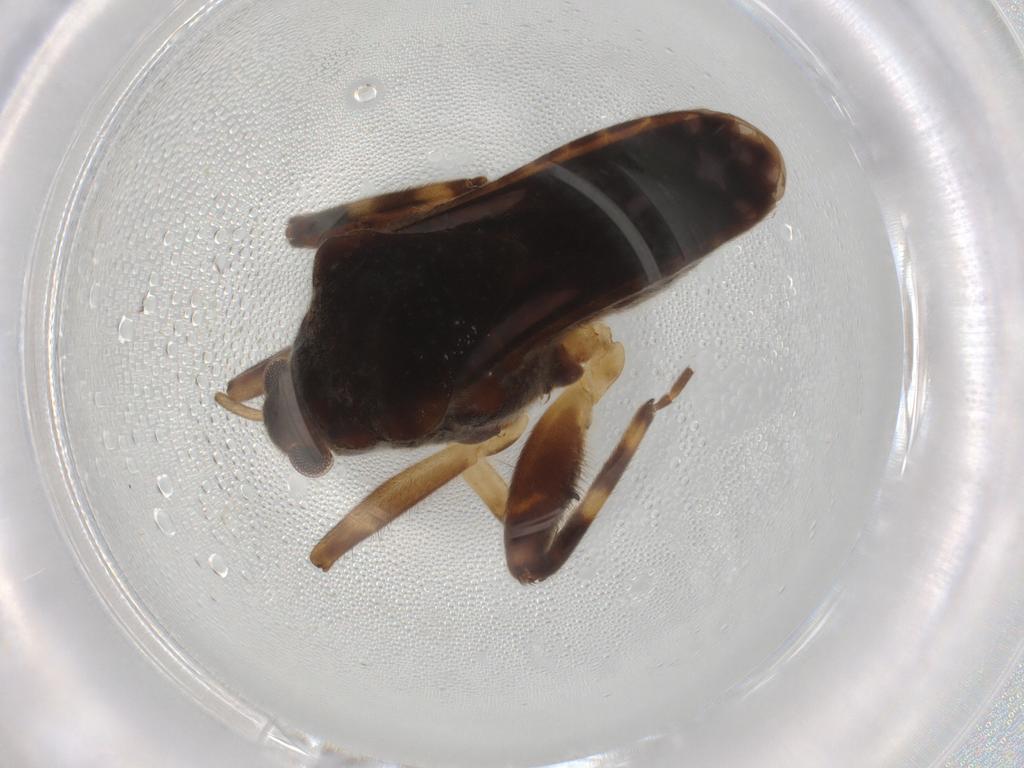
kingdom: Animalia
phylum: Arthropoda
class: Insecta
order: Hemiptera
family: Delphacidae
